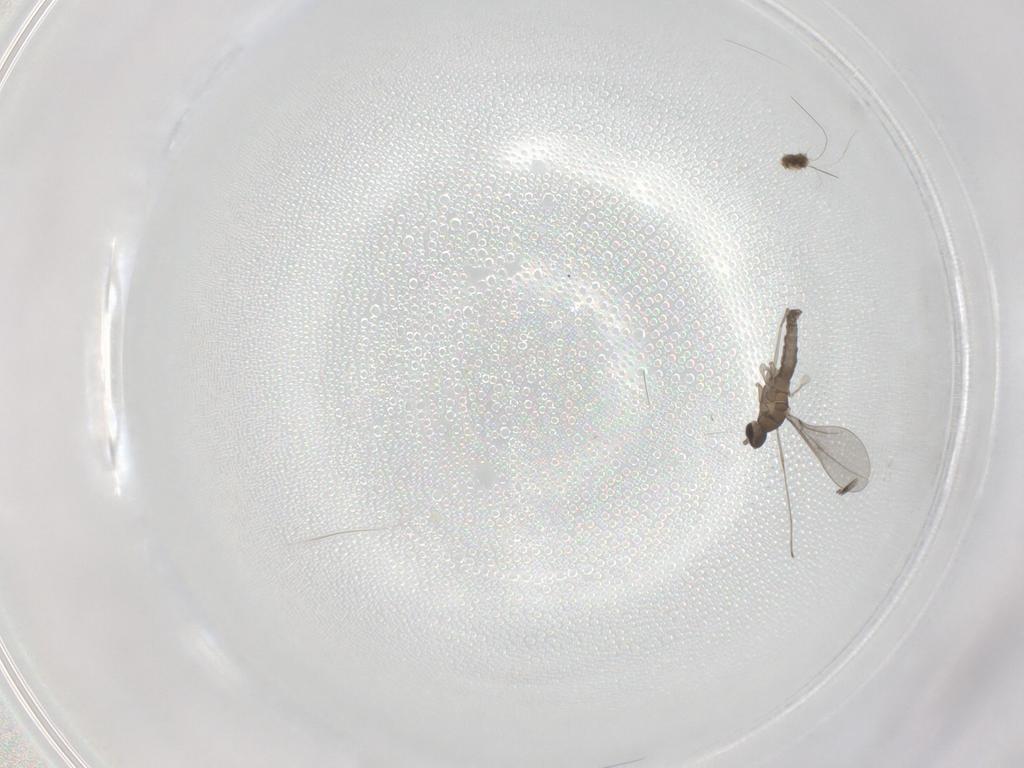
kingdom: Animalia
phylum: Arthropoda
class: Insecta
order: Diptera
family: Cecidomyiidae
